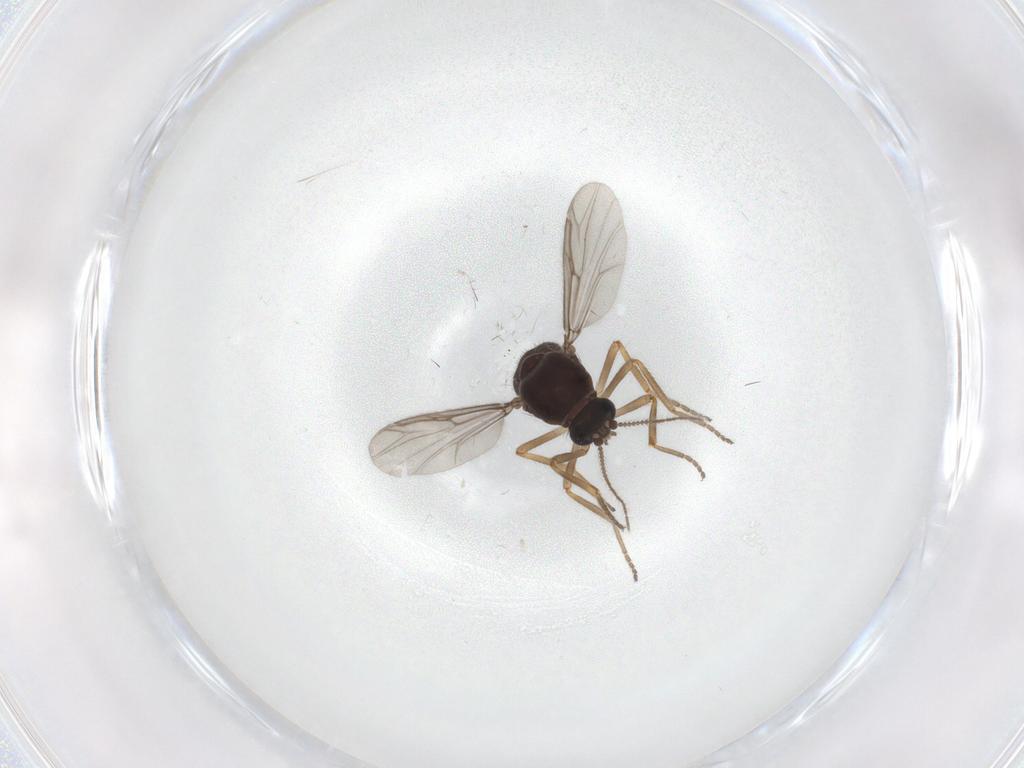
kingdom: Animalia
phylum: Arthropoda
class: Insecta
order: Diptera
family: Ceratopogonidae
